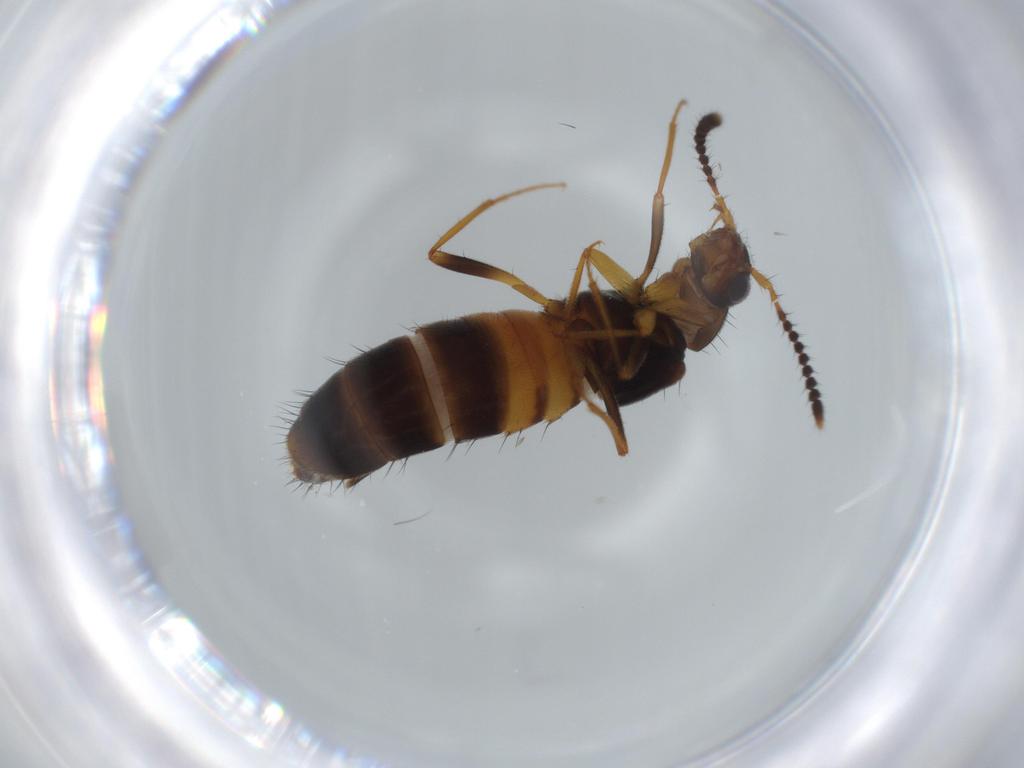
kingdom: Animalia
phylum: Arthropoda
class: Insecta
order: Coleoptera
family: Staphylinidae
